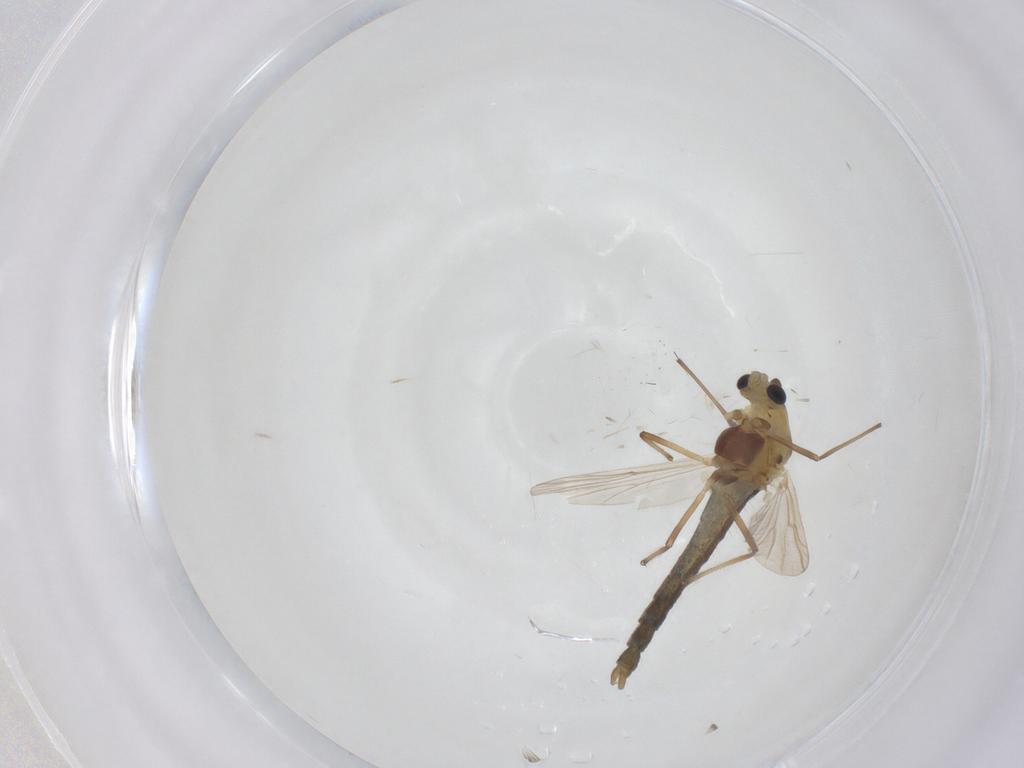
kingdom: Animalia
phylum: Arthropoda
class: Insecta
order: Diptera
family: Chironomidae
